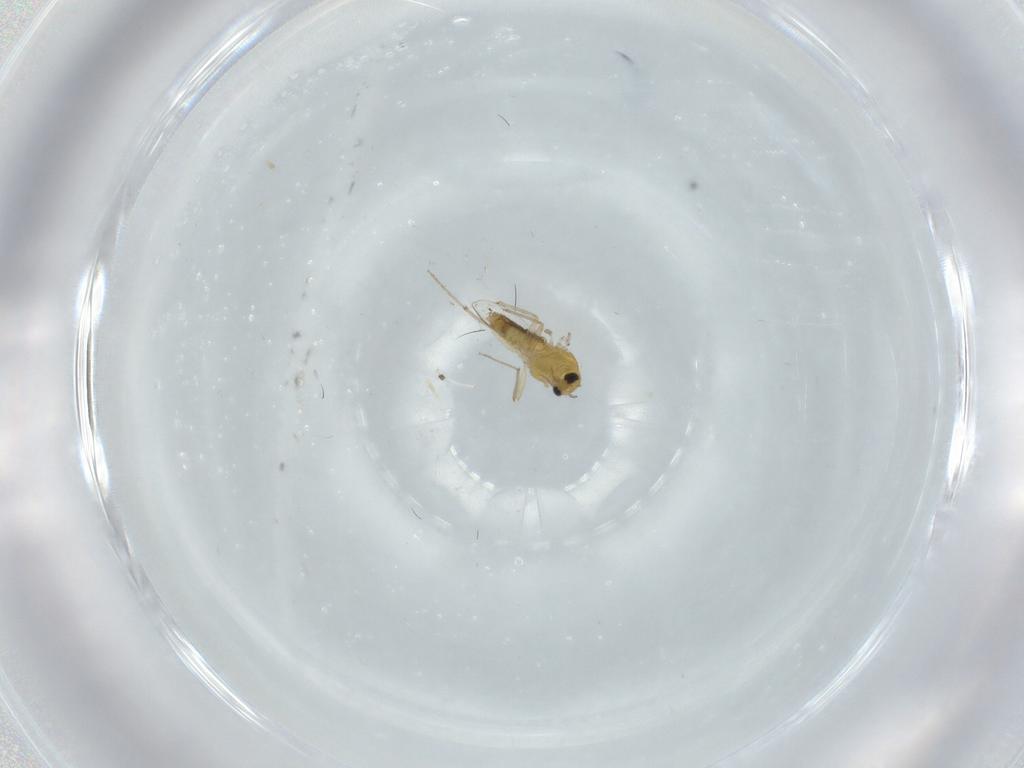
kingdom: Animalia
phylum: Arthropoda
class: Insecta
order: Diptera
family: Chironomidae
